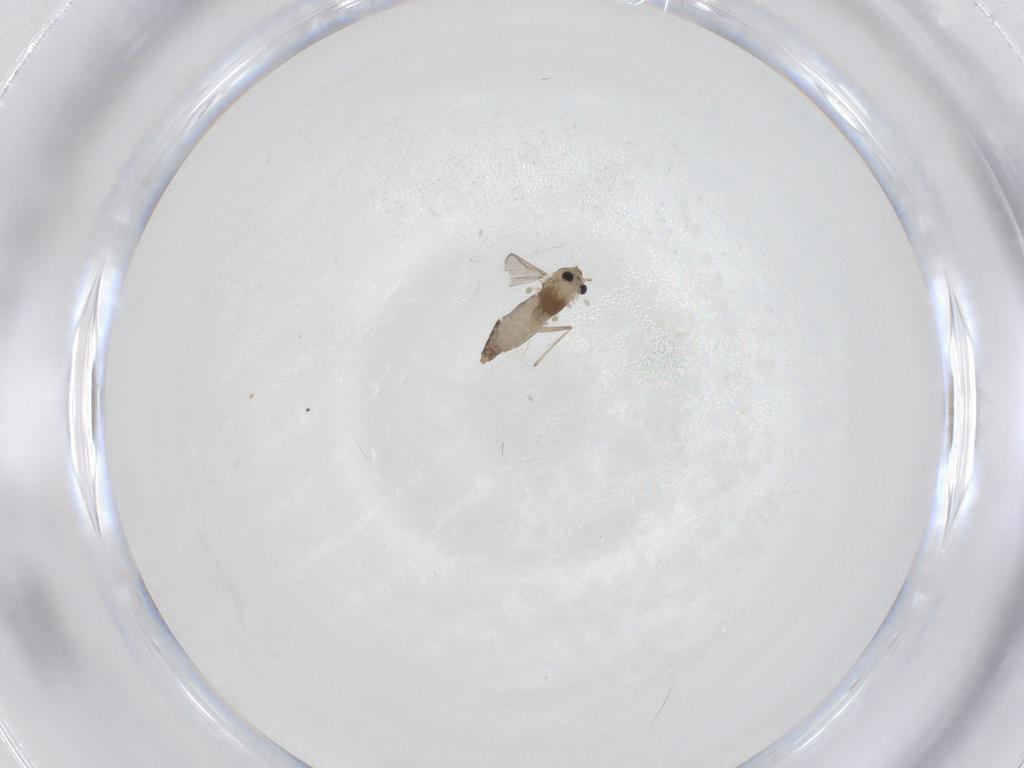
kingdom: Animalia
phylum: Arthropoda
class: Insecta
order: Diptera
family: Chironomidae
